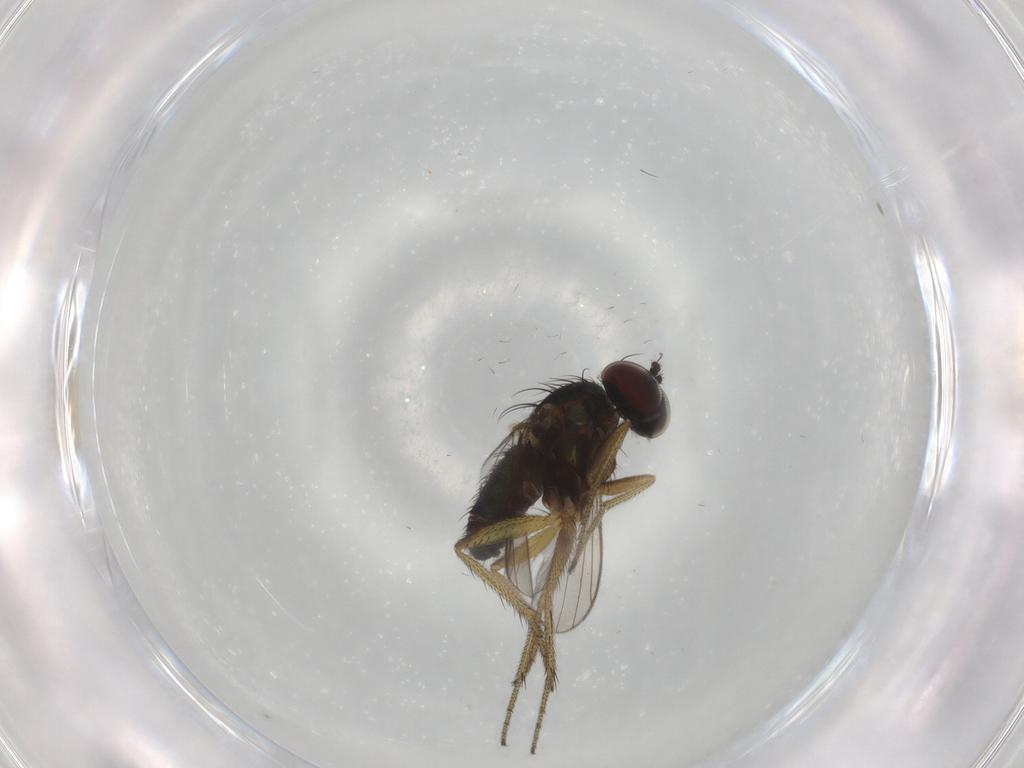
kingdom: Animalia
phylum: Arthropoda
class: Insecta
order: Diptera
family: Dolichopodidae
